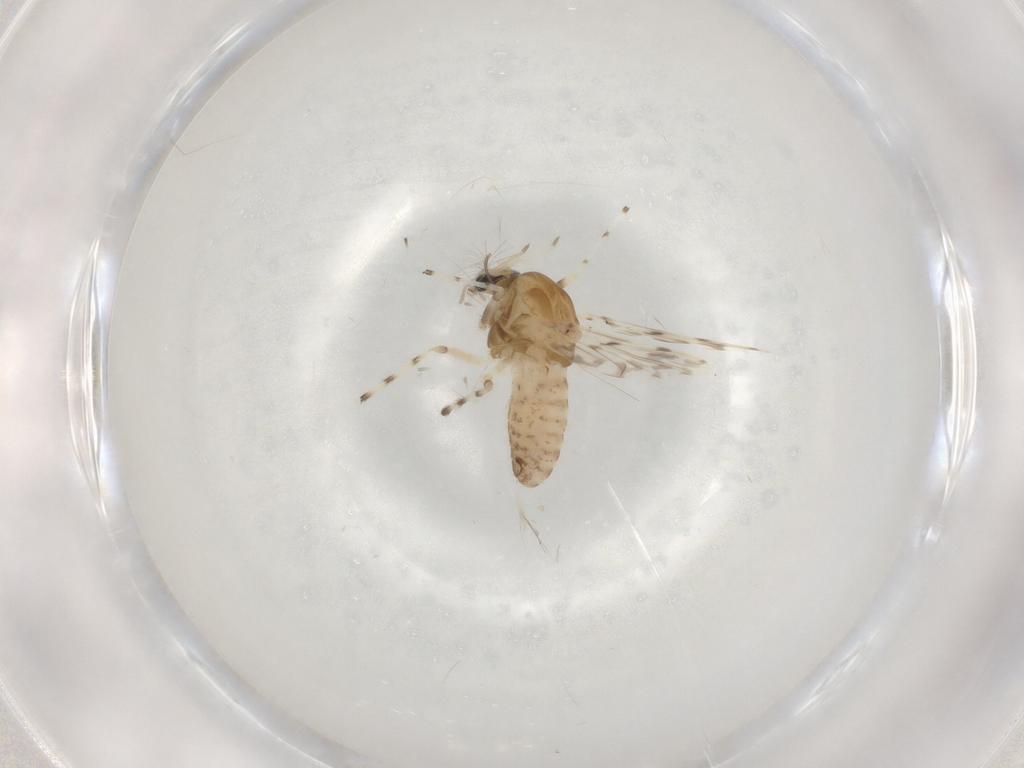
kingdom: Animalia
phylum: Arthropoda
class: Insecta
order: Diptera
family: Chironomidae
